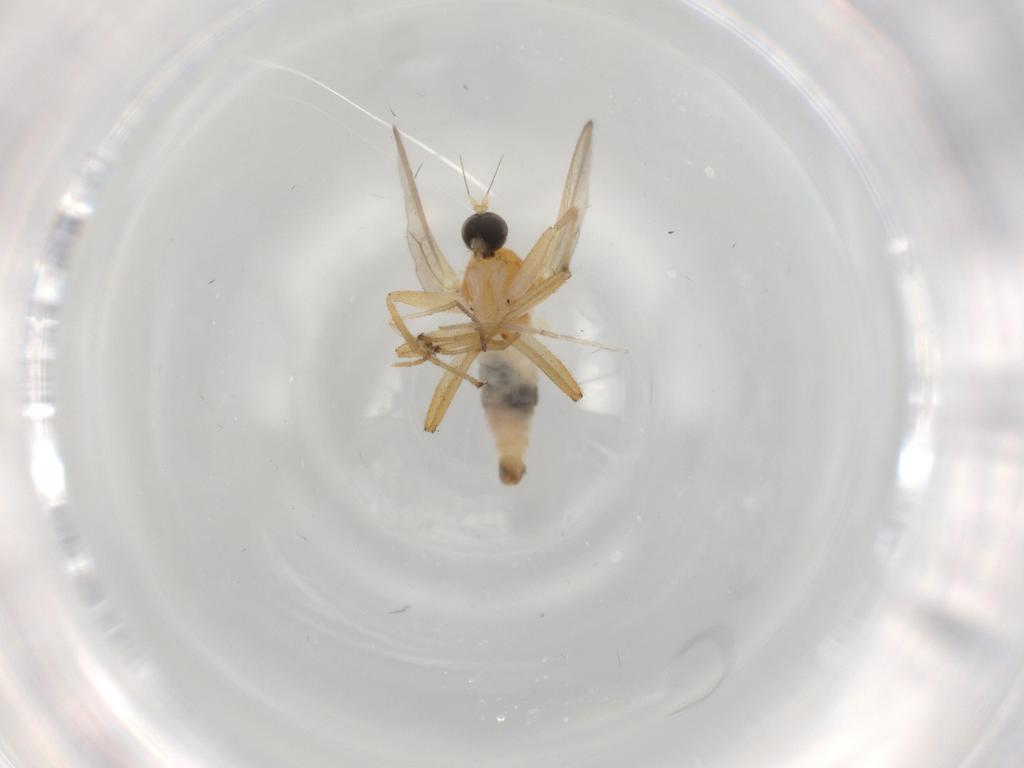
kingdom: Animalia
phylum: Arthropoda
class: Insecta
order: Diptera
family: Hybotidae
